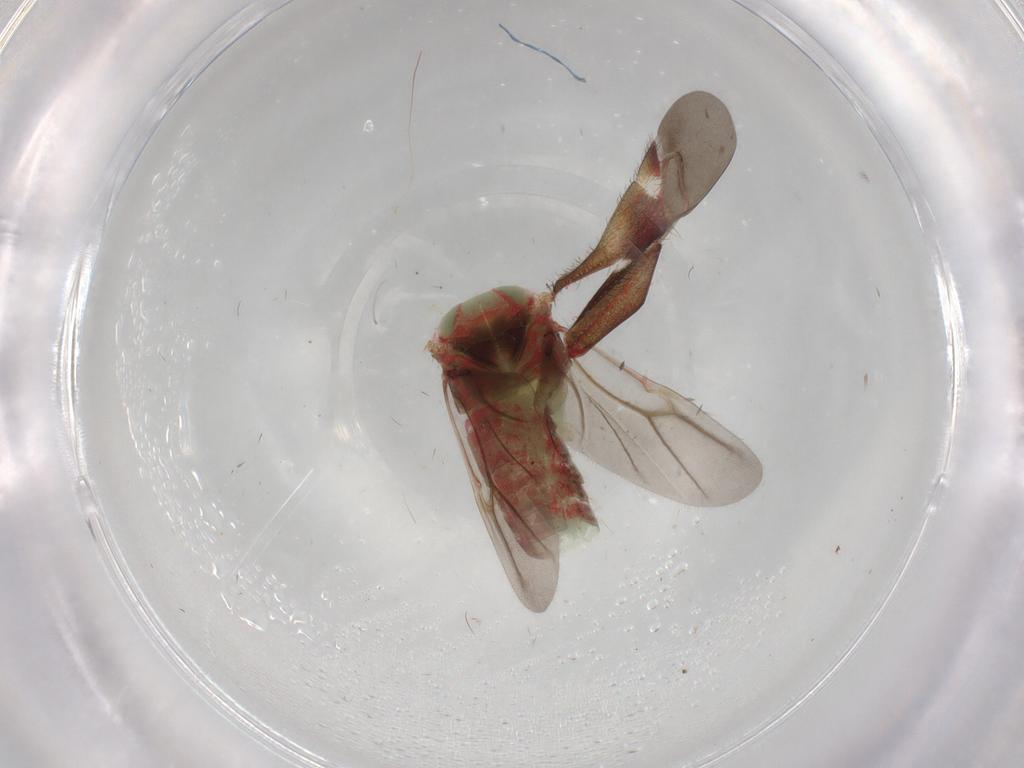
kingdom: Animalia
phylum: Arthropoda
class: Insecta
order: Hemiptera
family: Miridae
